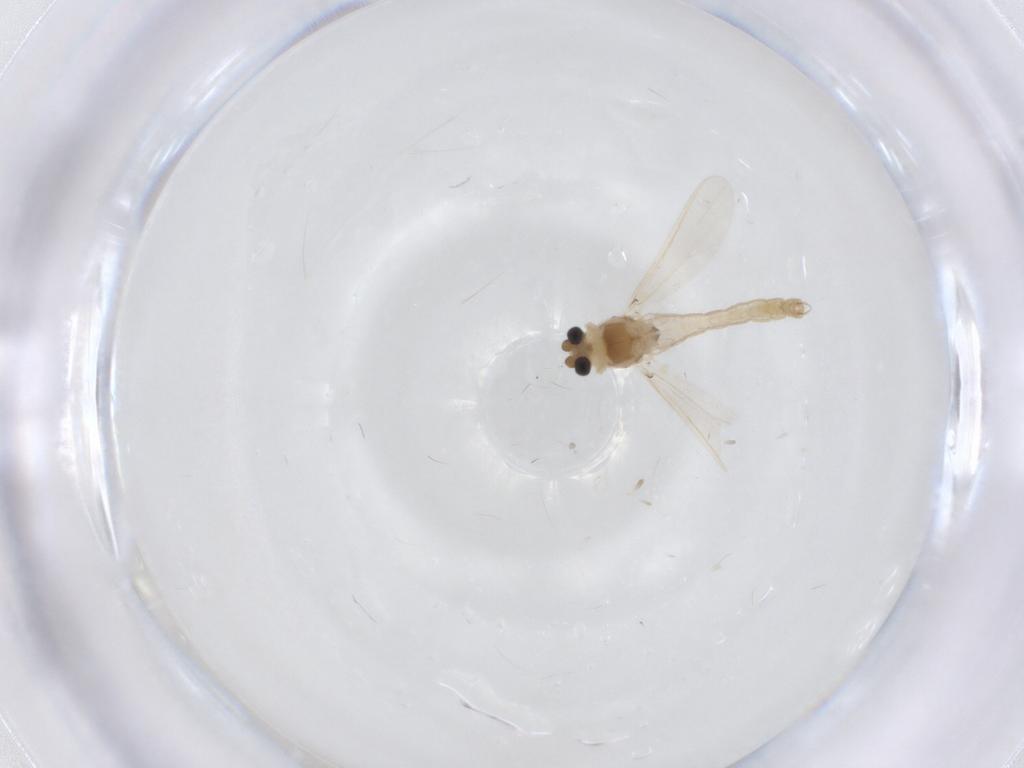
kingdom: Animalia
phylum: Arthropoda
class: Insecta
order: Diptera
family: Chironomidae
